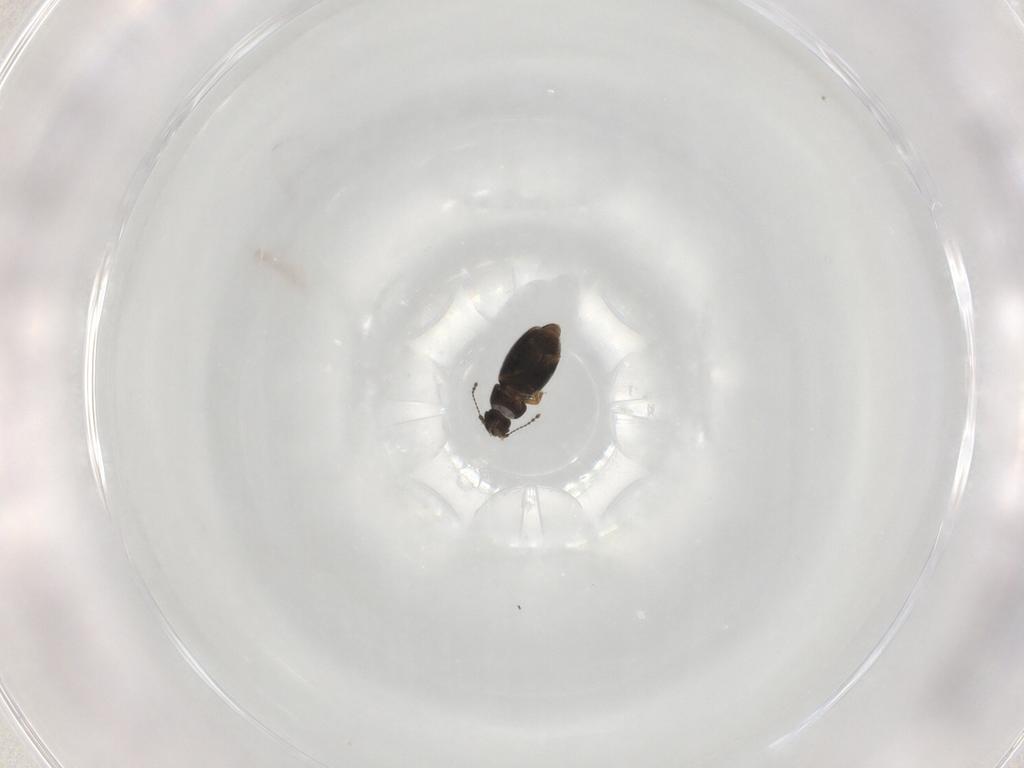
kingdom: Animalia
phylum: Arthropoda
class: Insecta
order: Coleoptera
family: Ptiliidae
